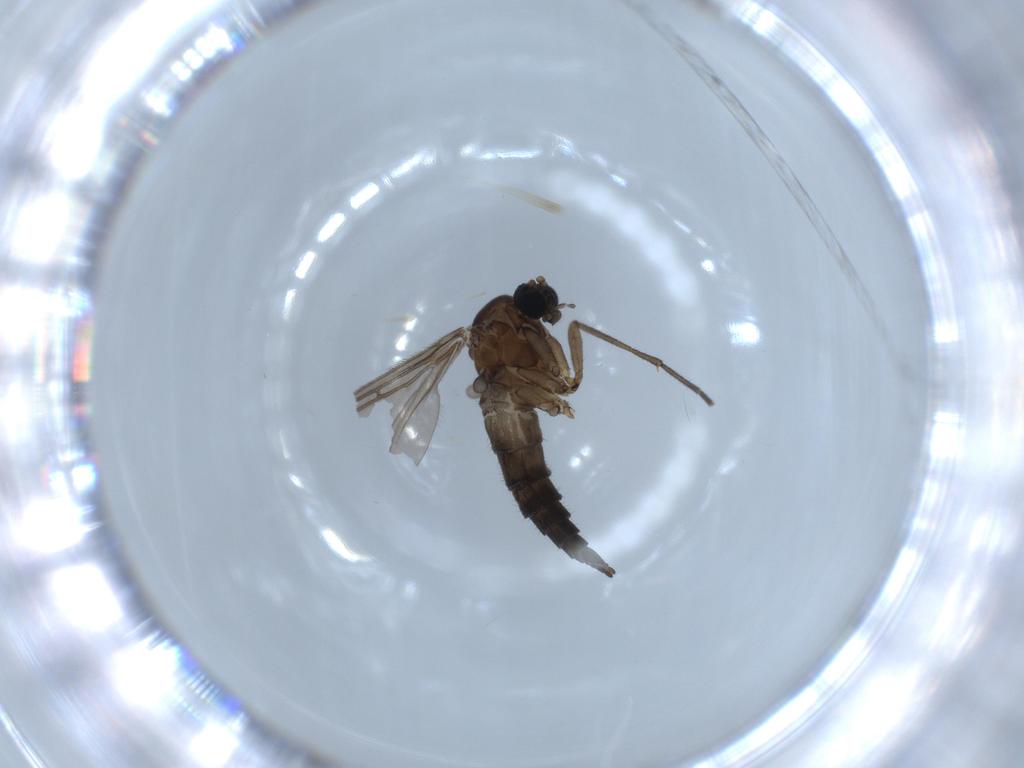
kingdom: Animalia
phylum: Arthropoda
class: Insecta
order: Diptera
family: Sciaridae
